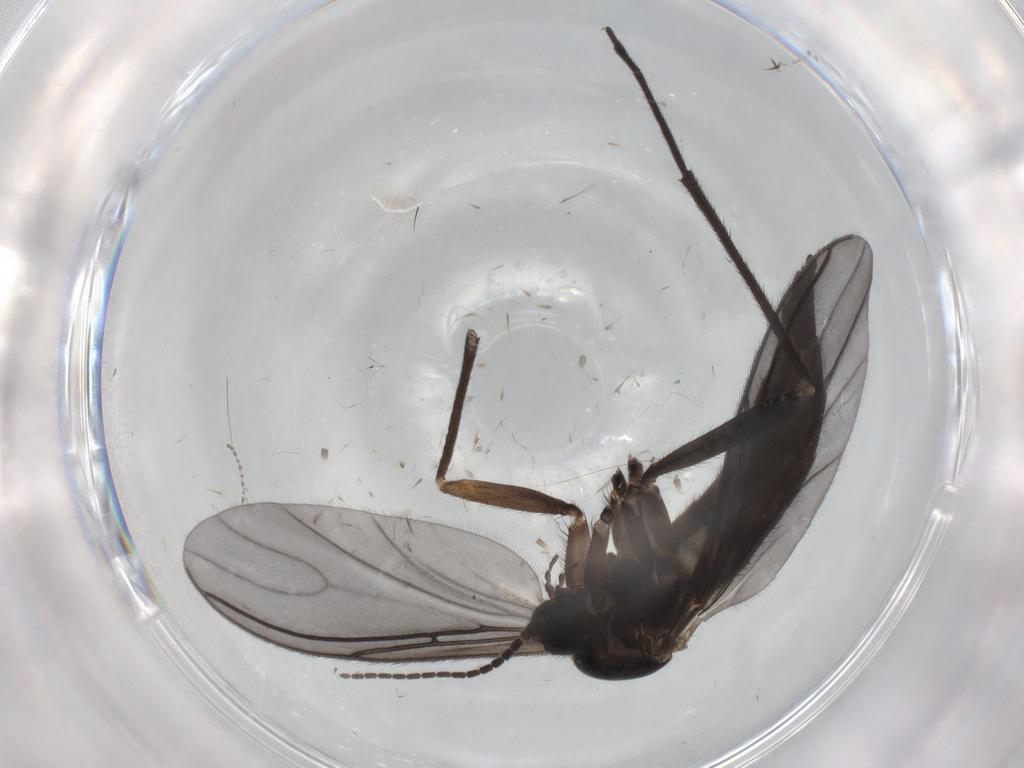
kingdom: Animalia
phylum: Arthropoda
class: Insecta
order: Diptera
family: Sciaridae
